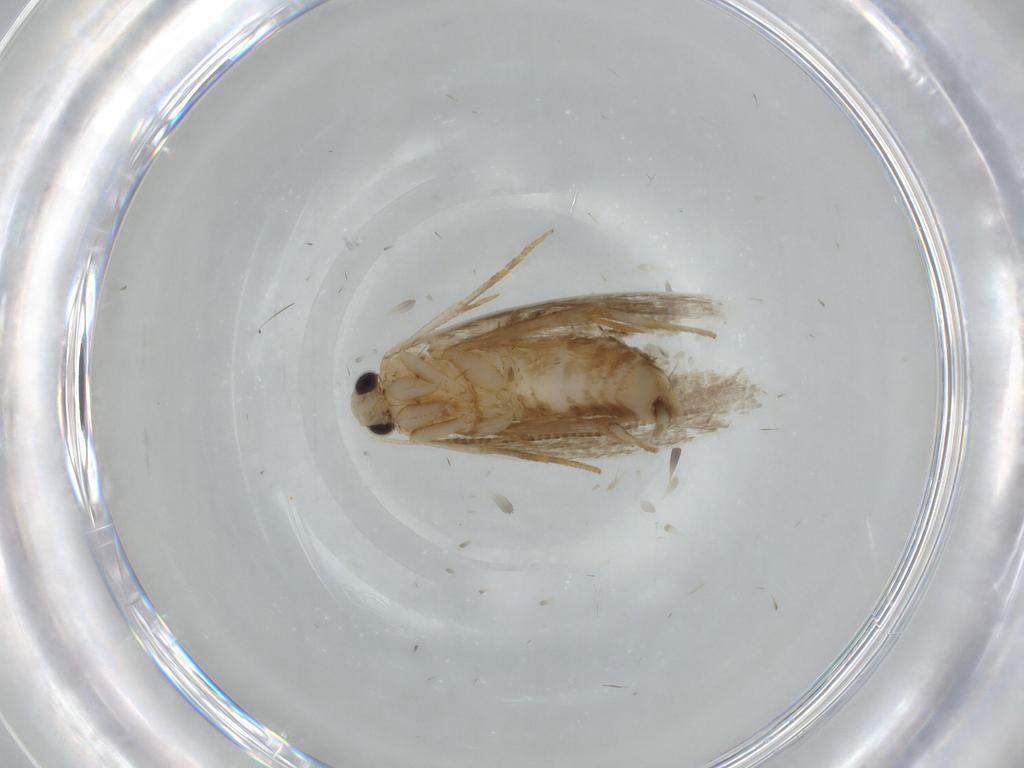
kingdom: Animalia
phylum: Arthropoda
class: Insecta
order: Lepidoptera
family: Tineidae
